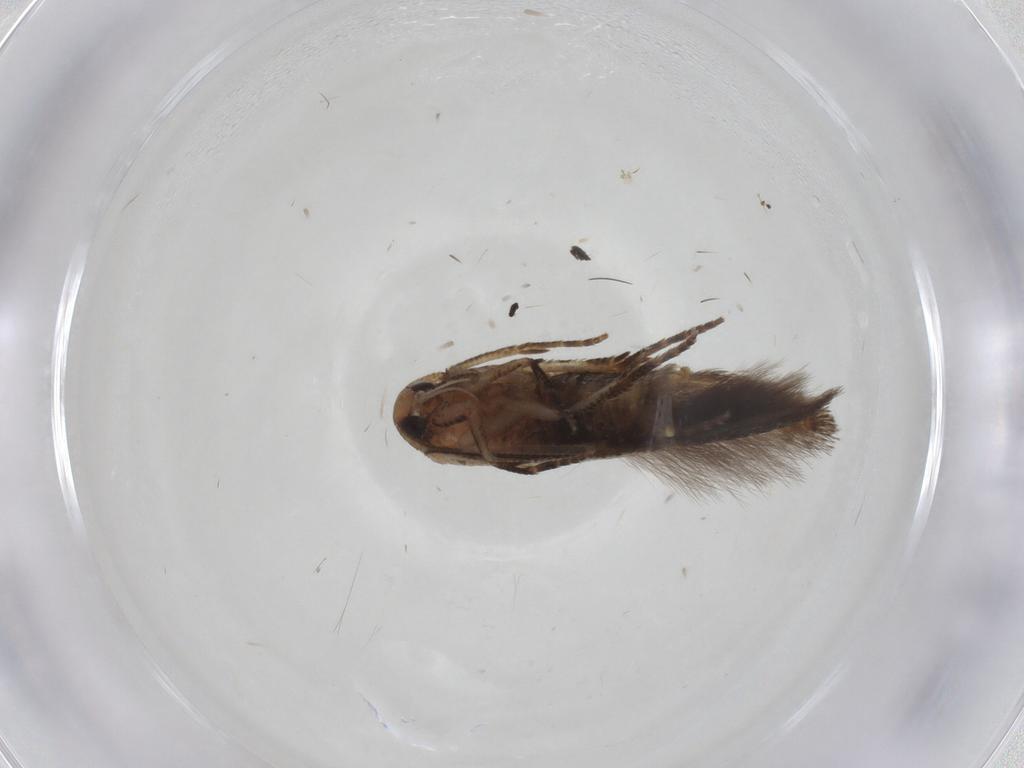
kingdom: Animalia
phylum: Arthropoda
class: Insecta
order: Lepidoptera
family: Cosmopterigidae
